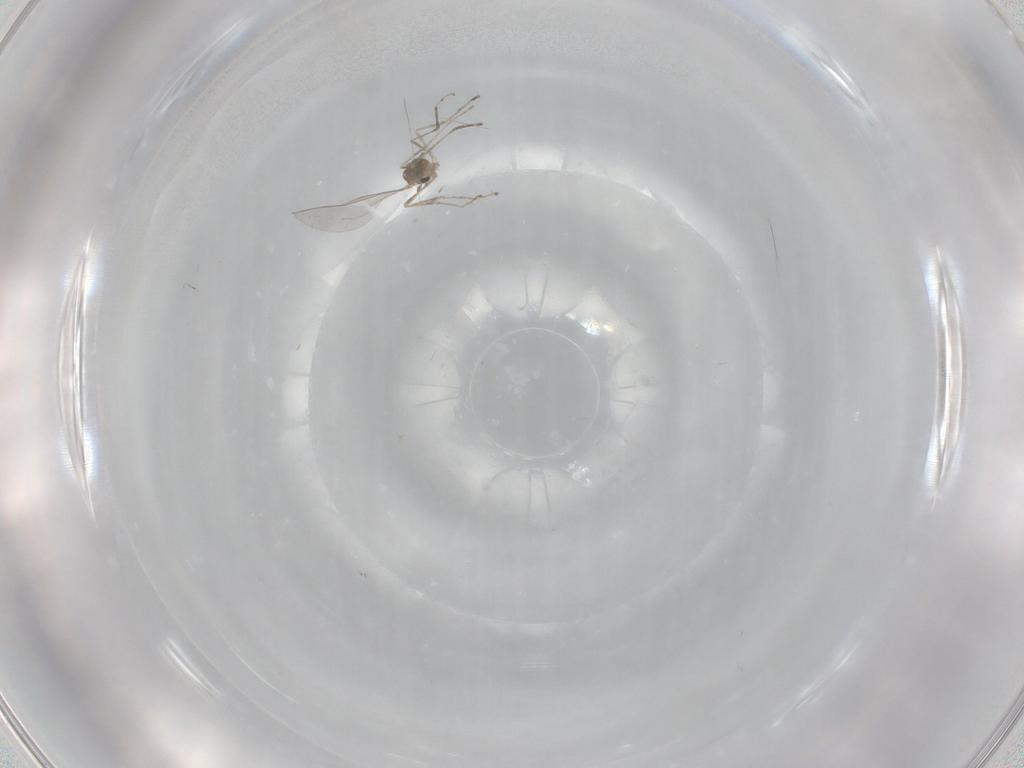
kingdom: Animalia
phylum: Arthropoda
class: Insecta
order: Diptera
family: Cecidomyiidae
